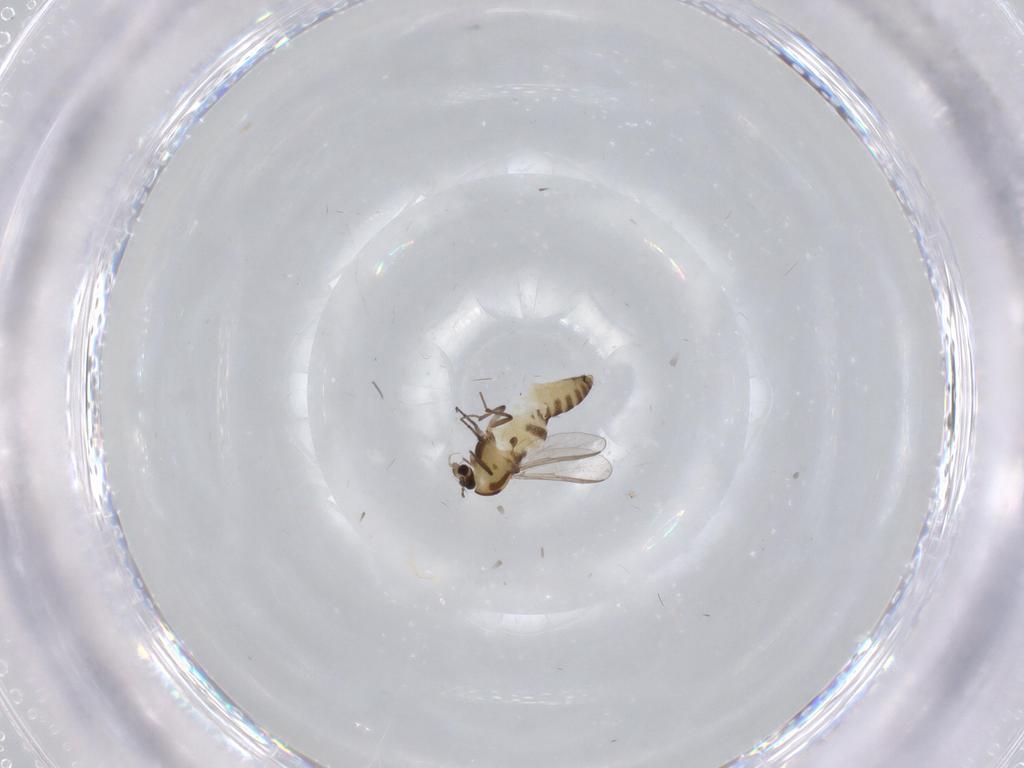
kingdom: Animalia
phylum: Arthropoda
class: Insecta
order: Diptera
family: Chironomidae
